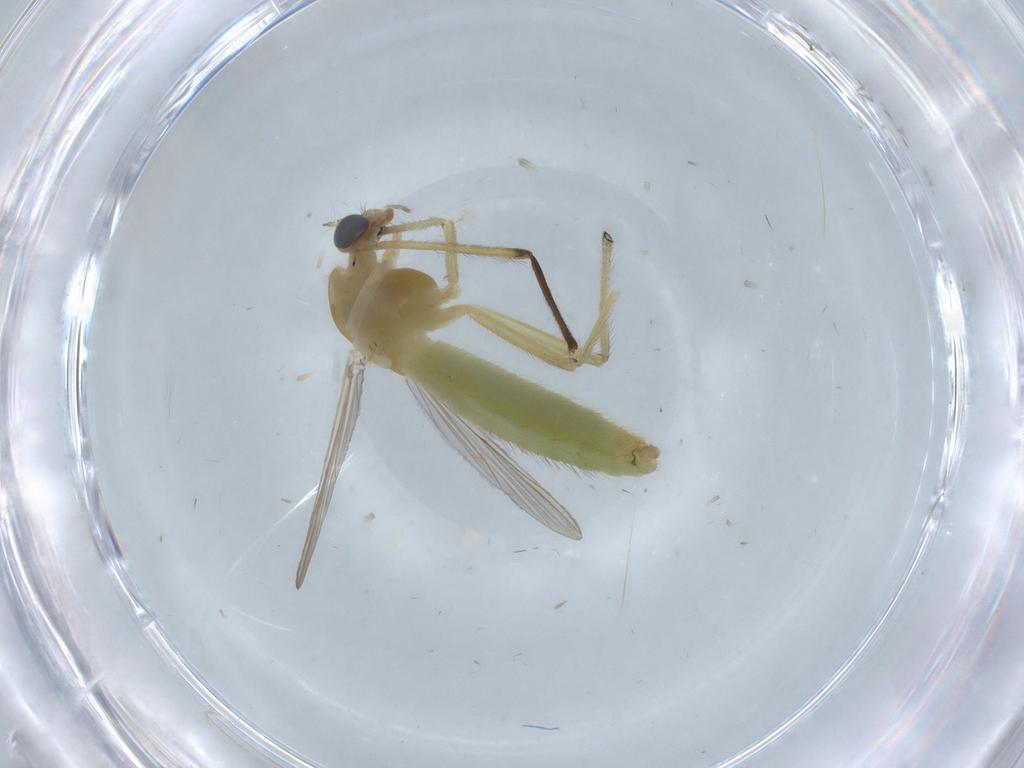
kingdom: Animalia
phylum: Arthropoda
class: Insecta
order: Diptera
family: Chironomidae
